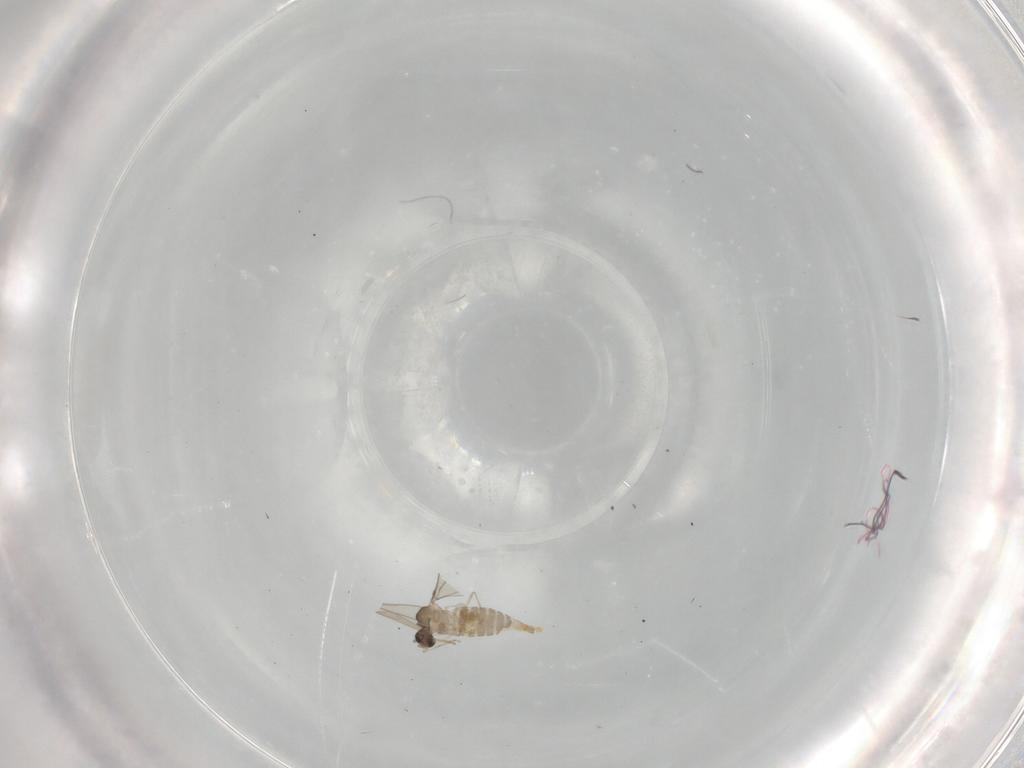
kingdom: Animalia
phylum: Arthropoda
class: Insecta
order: Diptera
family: Cecidomyiidae
